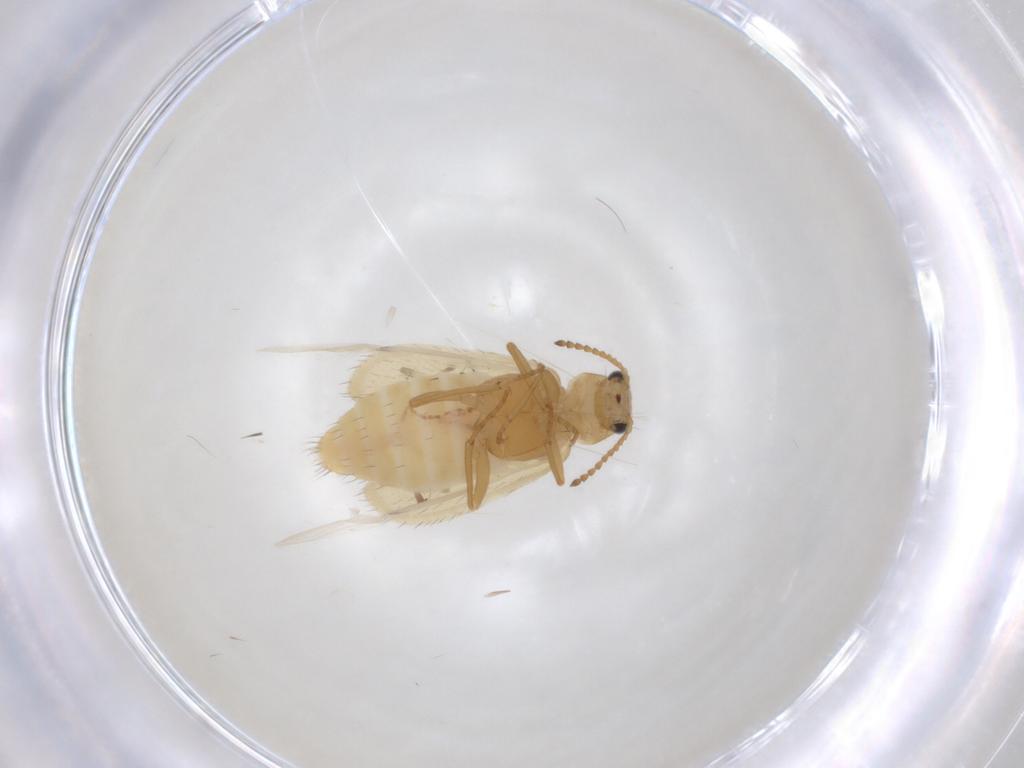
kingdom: Animalia
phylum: Arthropoda
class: Insecta
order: Coleoptera
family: Melyridae
